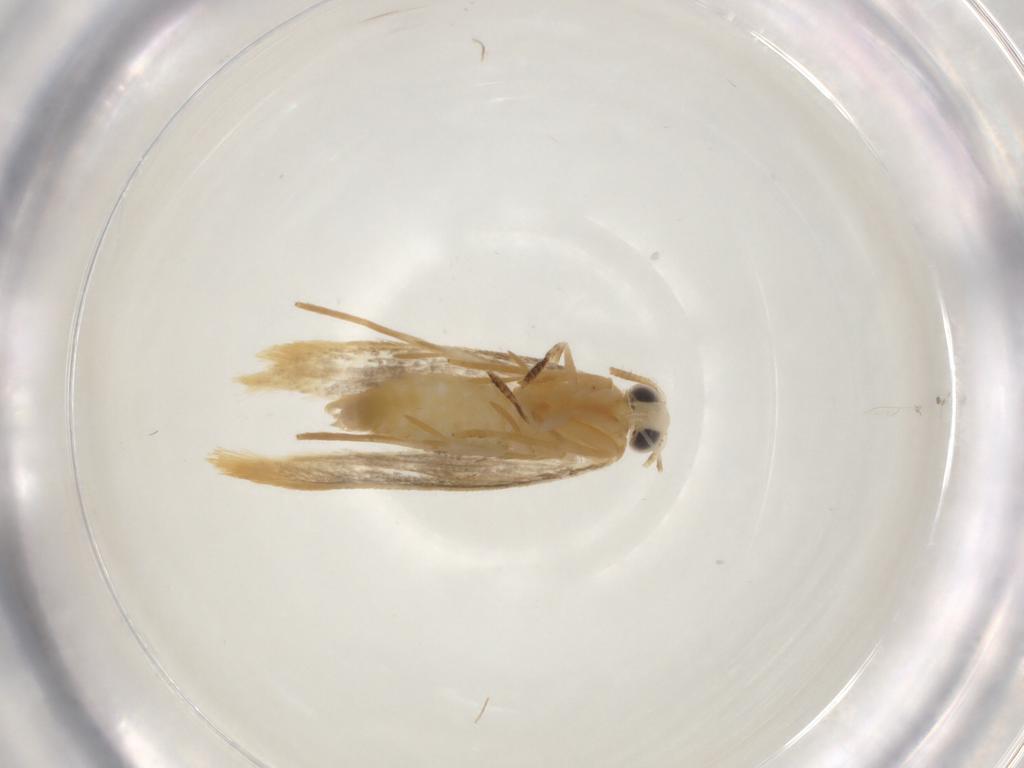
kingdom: Animalia
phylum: Arthropoda
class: Insecta
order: Lepidoptera
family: Nepticulidae
